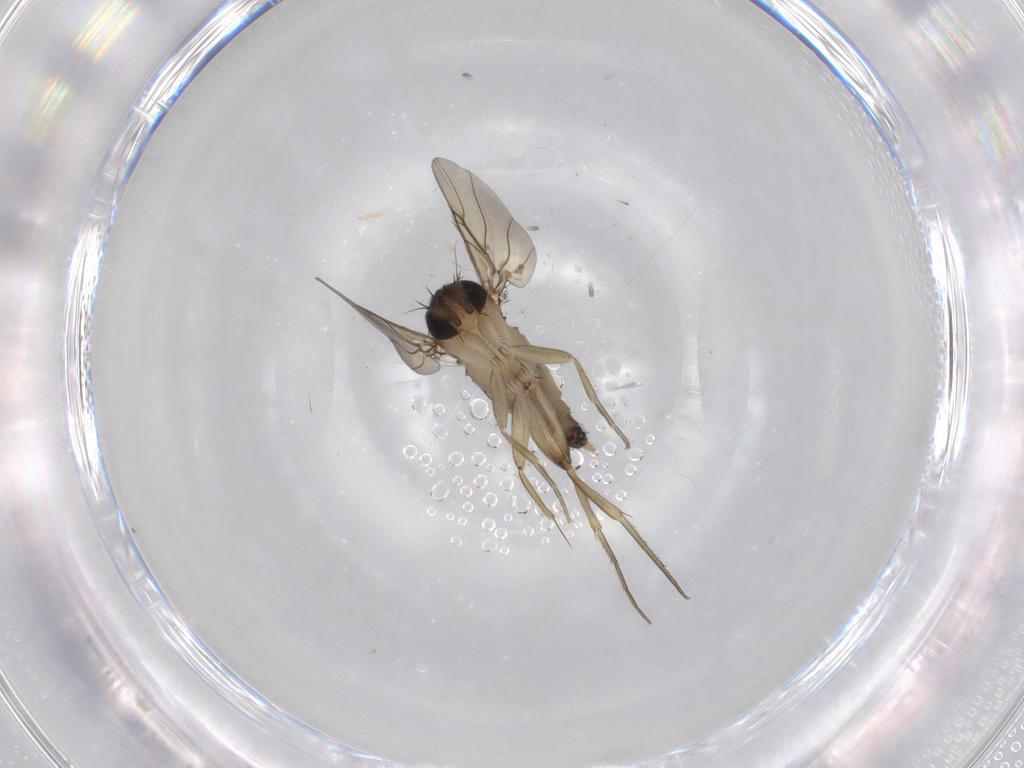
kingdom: Animalia
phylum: Arthropoda
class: Insecta
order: Diptera
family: Phoridae
